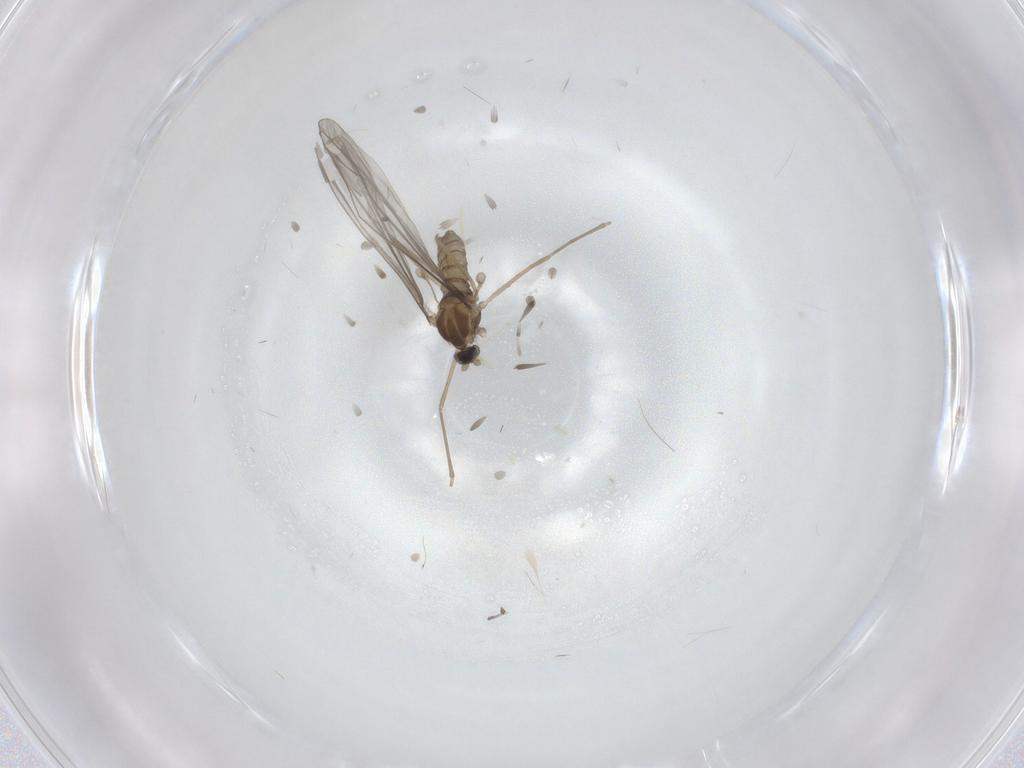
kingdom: Animalia
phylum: Arthropoda
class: Insecta
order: Diptera
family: Cecidomyiidae
